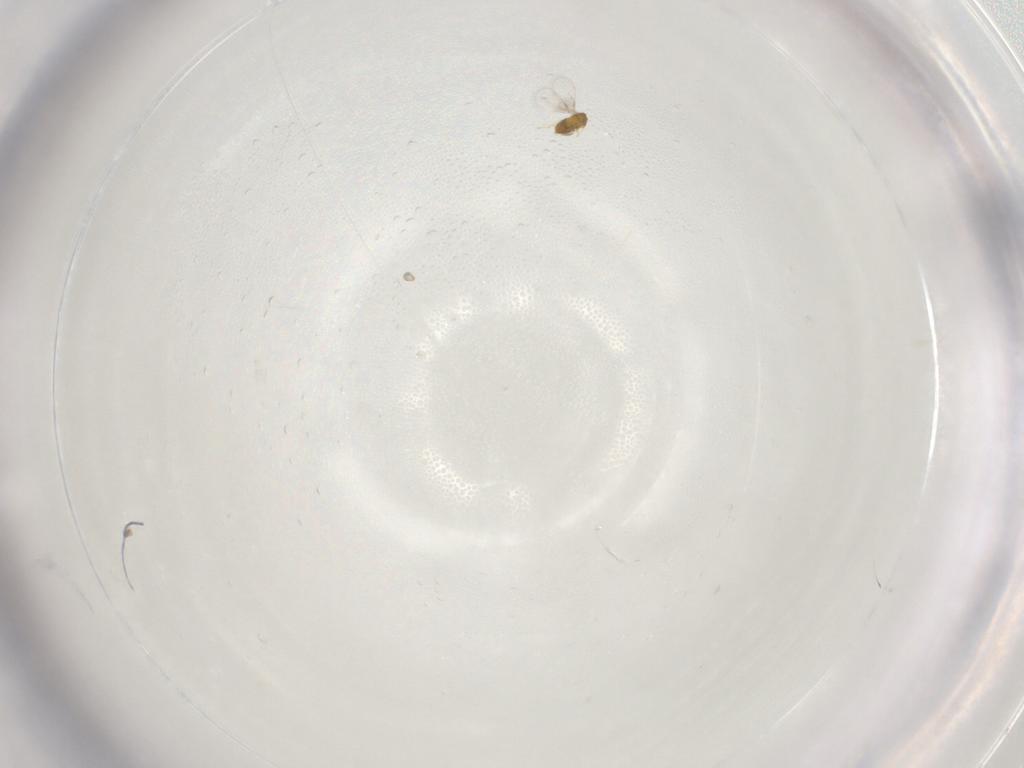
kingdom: Animalia
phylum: Arthropoda
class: Insecta
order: Hymenoptera
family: Trichogrammatidae
